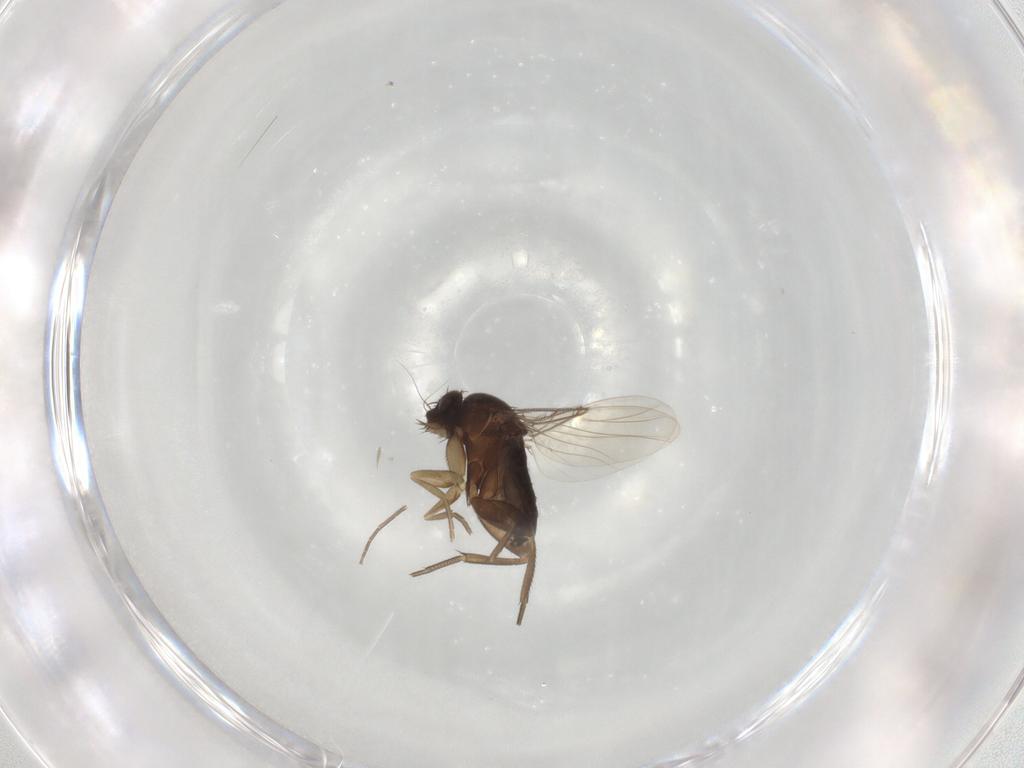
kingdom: Animalia
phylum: Arthropoda
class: Insecta
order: Diptera
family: Phoridae
